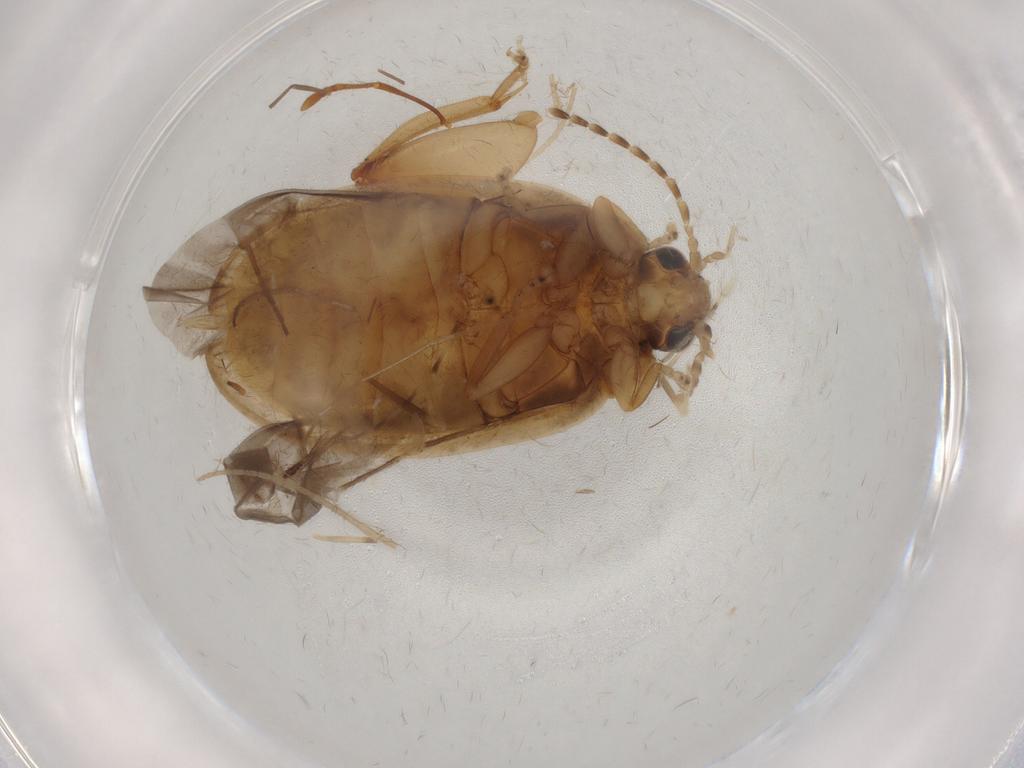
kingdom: Animalia
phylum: Arthropoda
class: Insecta
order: Coleoptera
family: Scirtidae
